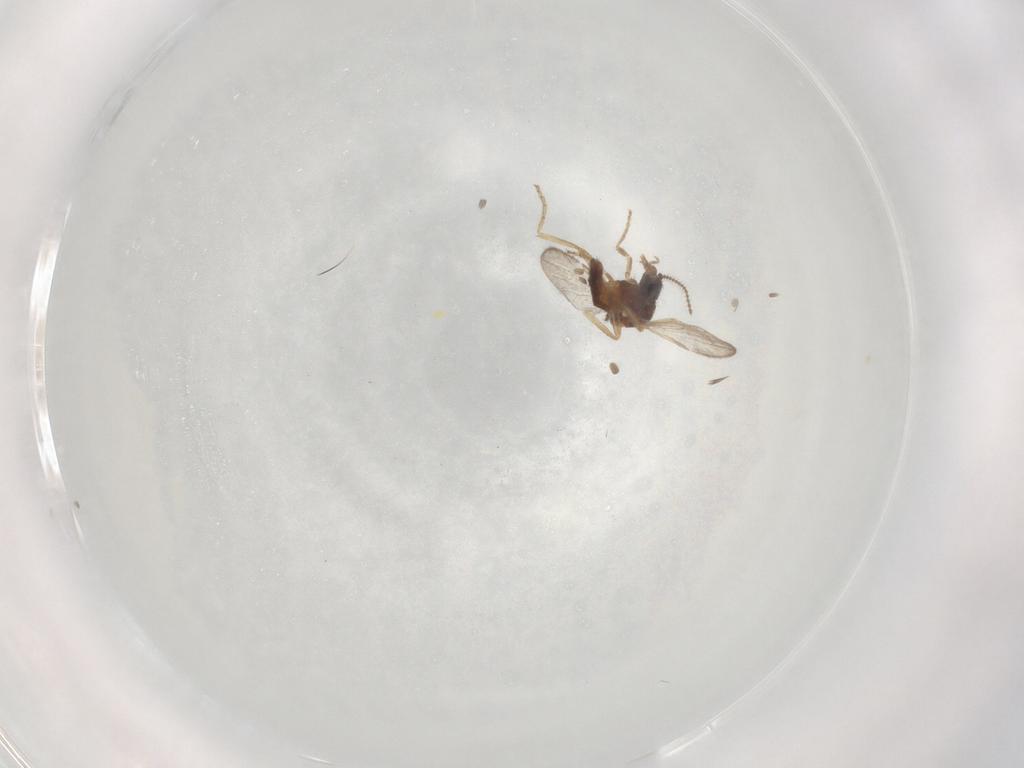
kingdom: Animalia
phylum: Arthropoda
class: Insecta
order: Diptera
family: Ceratopogonidae
